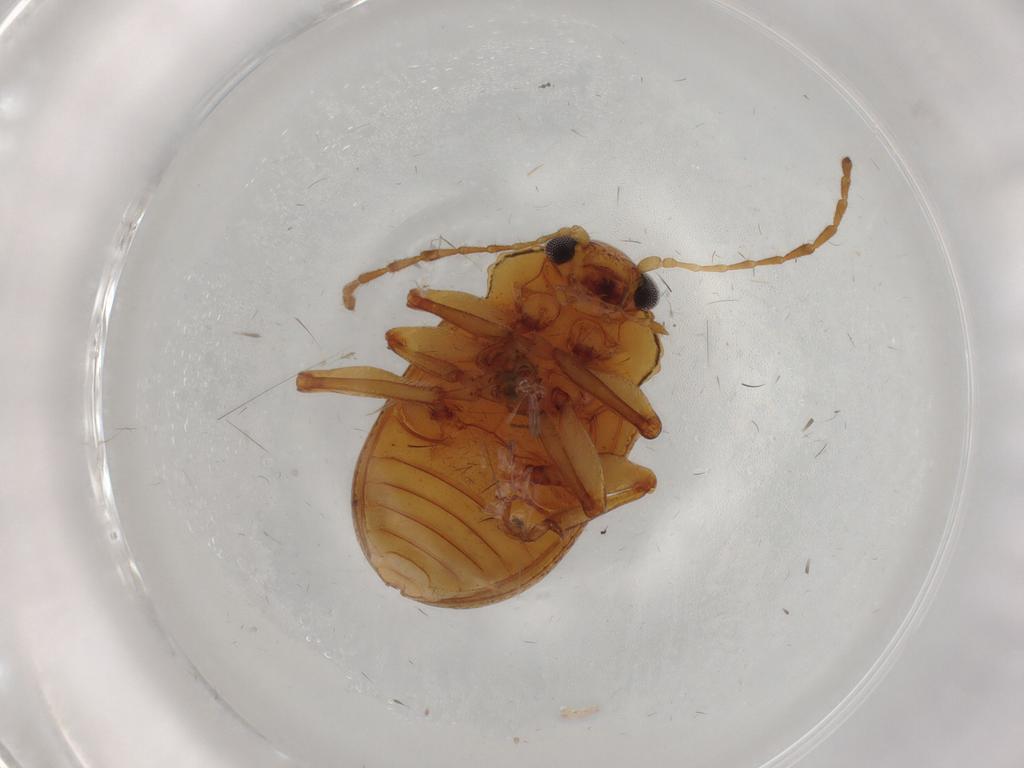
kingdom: Animalia
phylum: Arthropoda
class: Insecta
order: Coleoptera
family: Chrysomelidae
